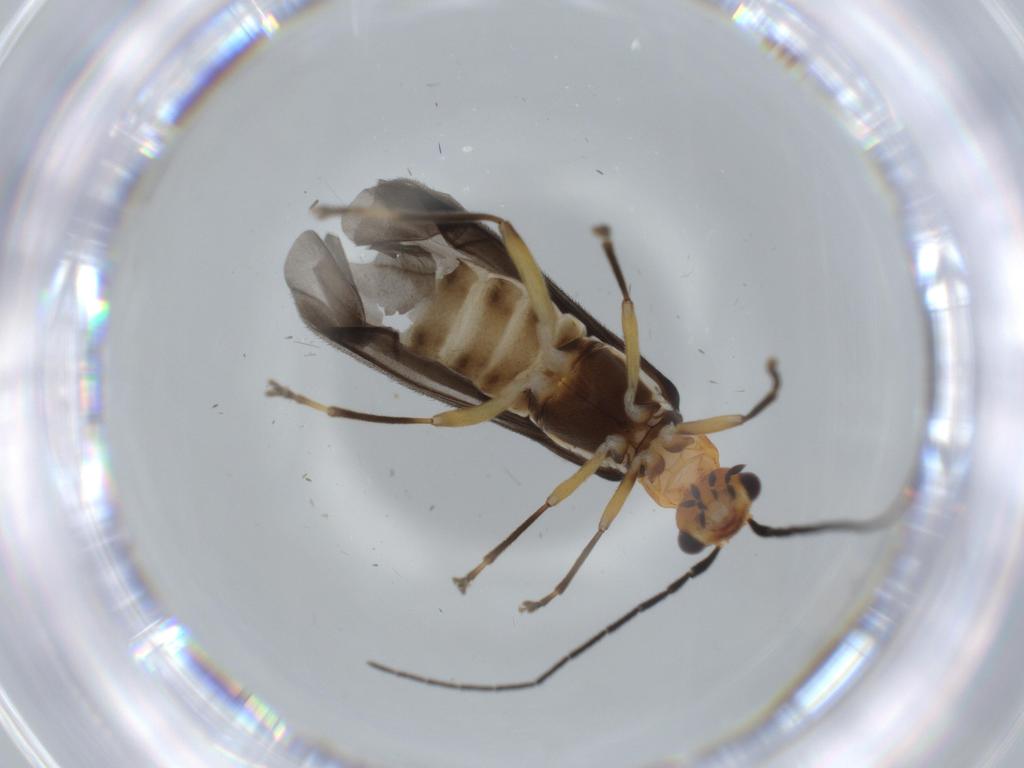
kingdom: Animalia
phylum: Arthropoda
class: Insecta
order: Coleoptera
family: Cantharidae
